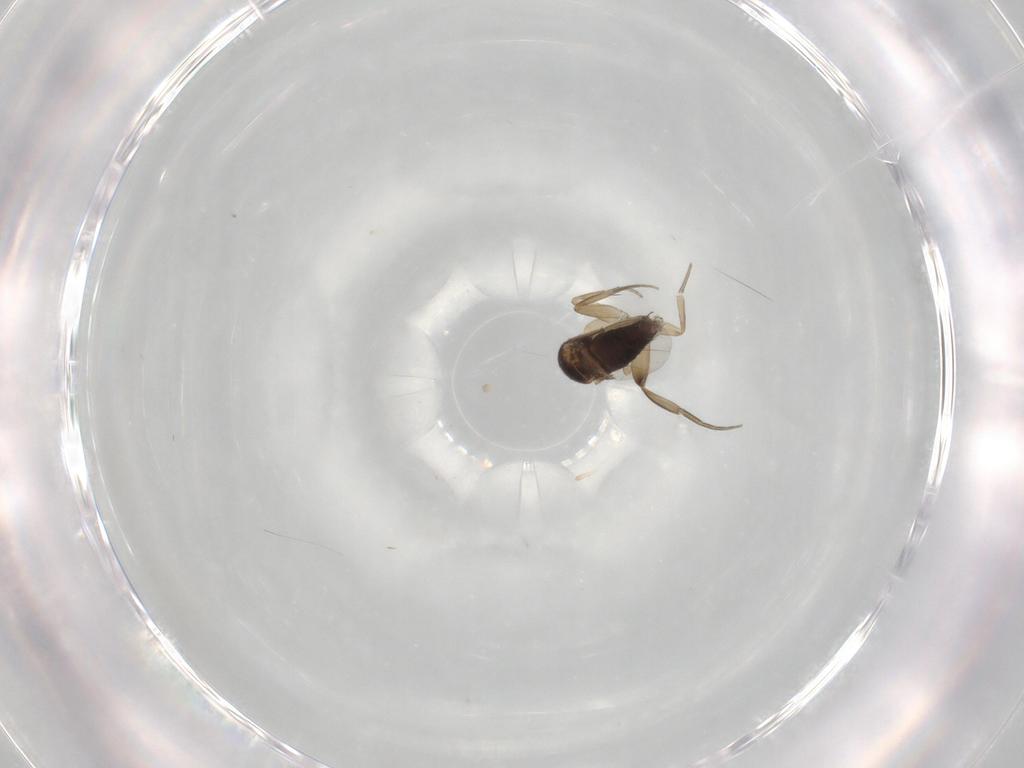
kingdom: Animalia
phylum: Arthropoda
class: Insecta
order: Diptera
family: Phoridae
